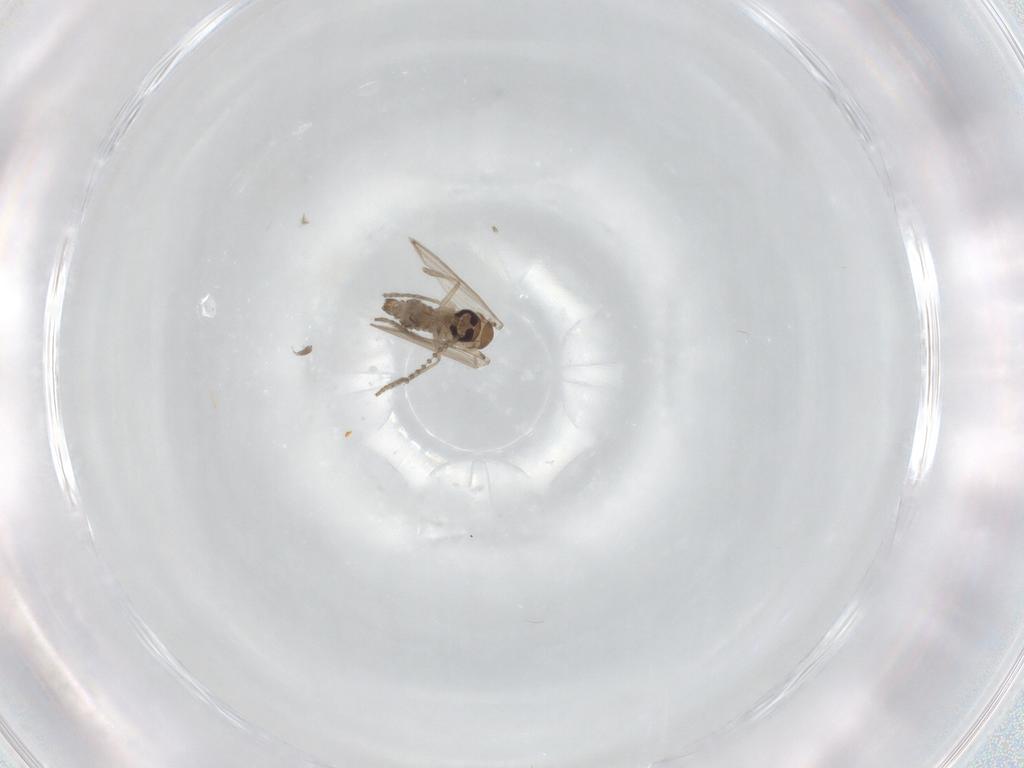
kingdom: Animalia
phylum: Arthropoda
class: Insecta
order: Diptera
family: Psychodidae
